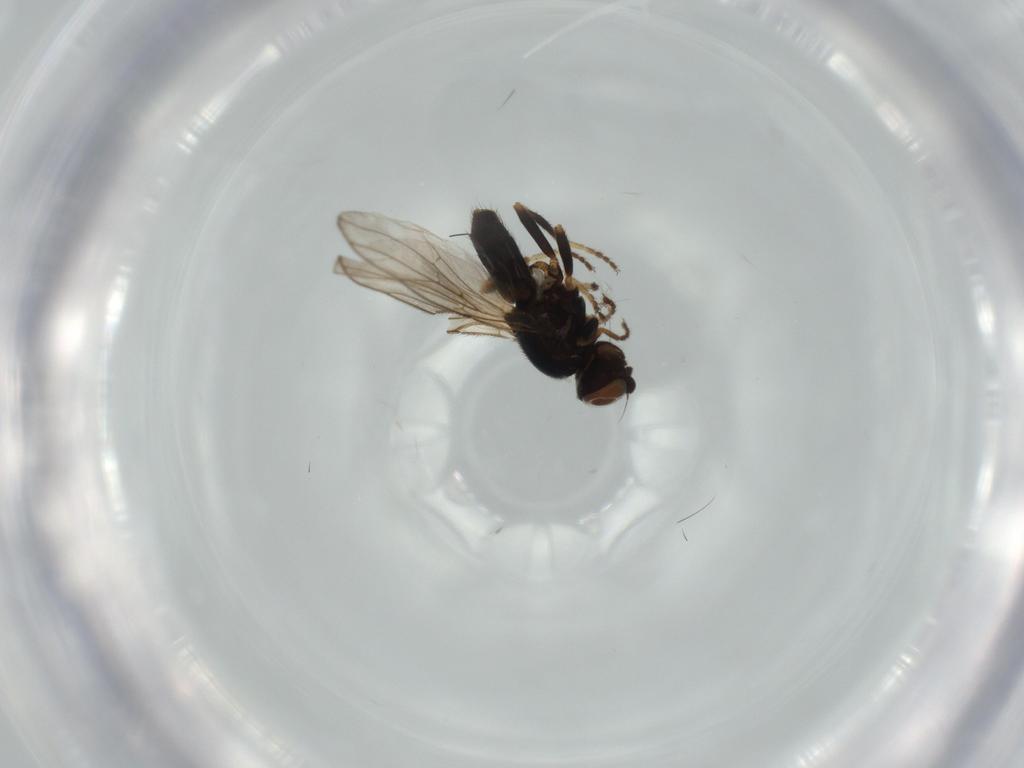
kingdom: Animalia
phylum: Arthropoda
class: Insecta
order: Diptera
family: Chloropidae
